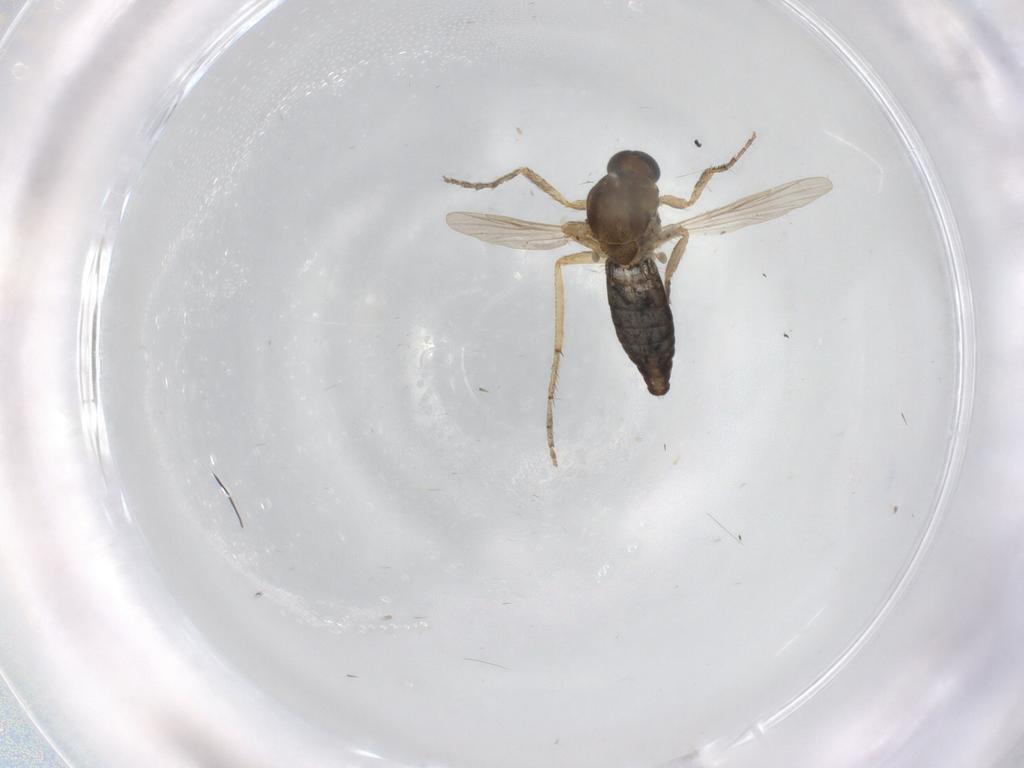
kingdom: Animalia
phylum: Arthropoda
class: Insecta
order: Diptera
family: Ceratopogonidae
